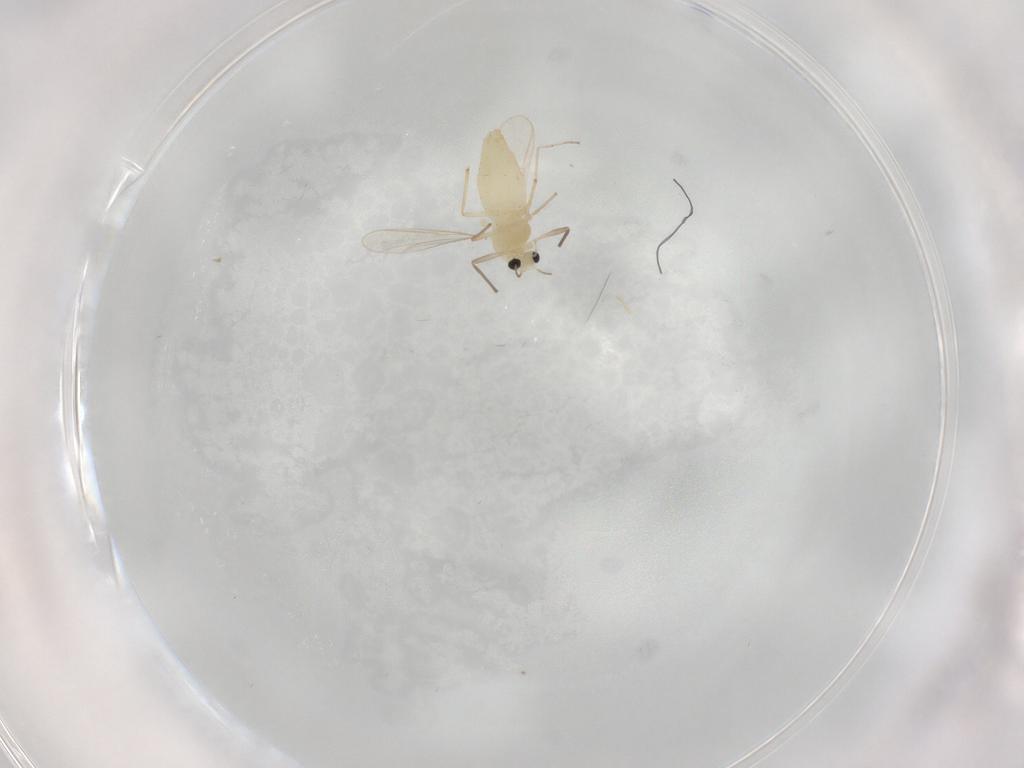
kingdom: Animalia
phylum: Arthropoda
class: Insecta
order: Diptera
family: Chironomidae
